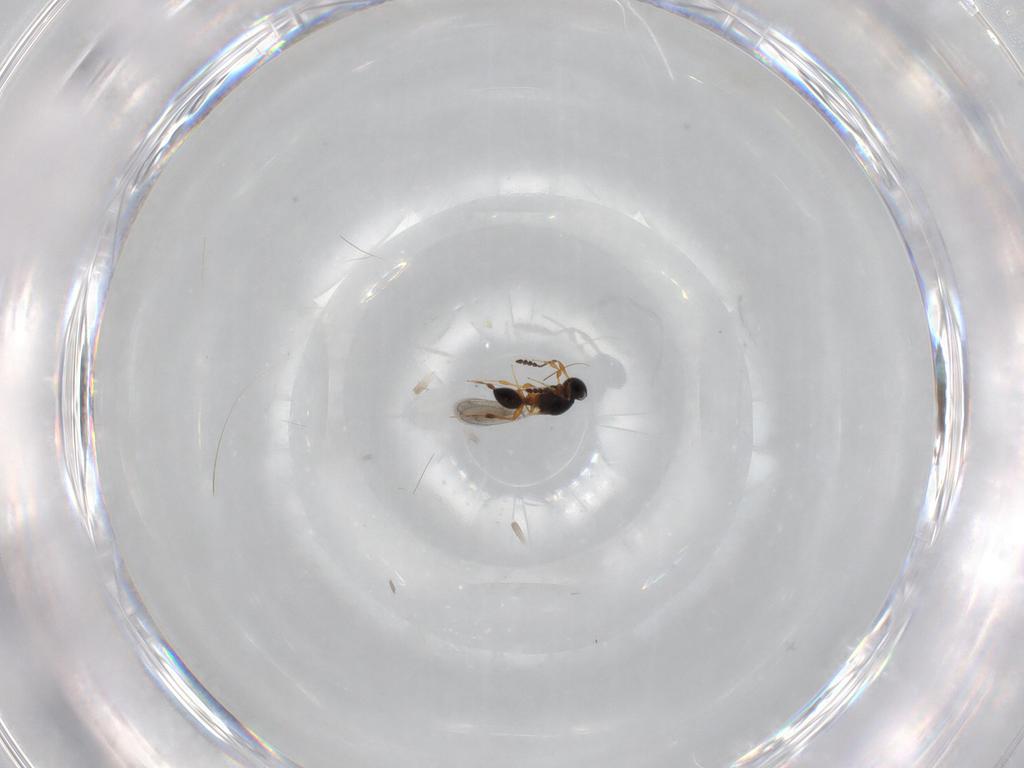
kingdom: Animalia
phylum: Arthropoda
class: Insecta
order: Hymenoptera
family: Platygastridae
